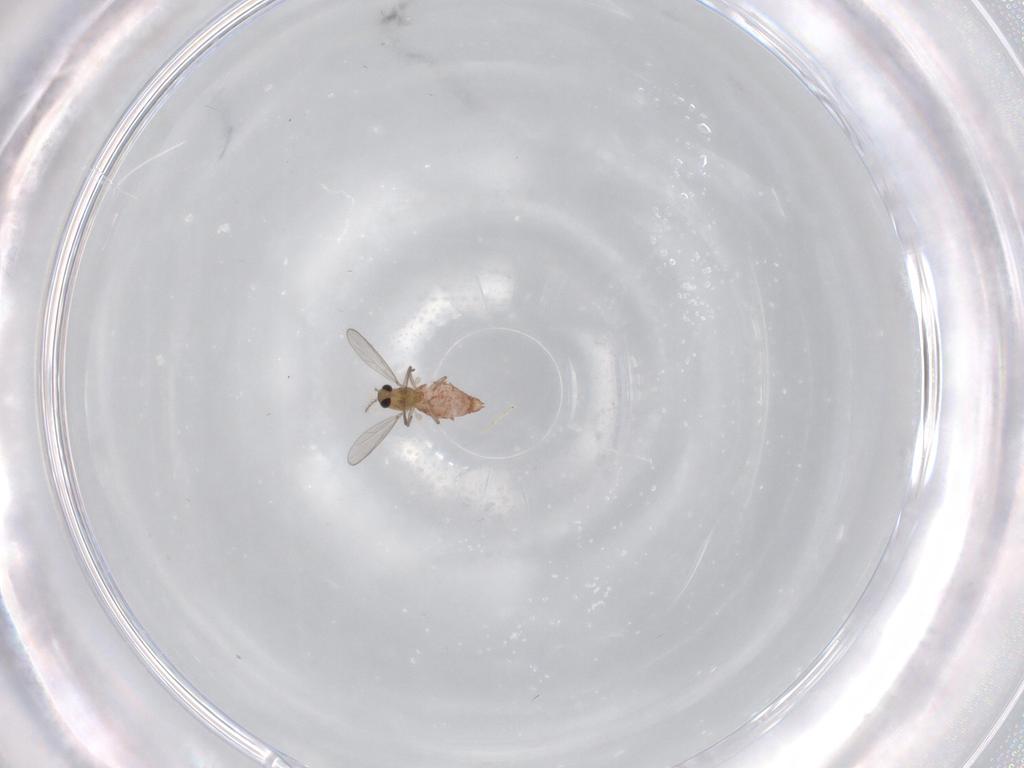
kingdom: Animalia
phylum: Arthropoda
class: Insecta
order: Diptera
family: Chironomidae
